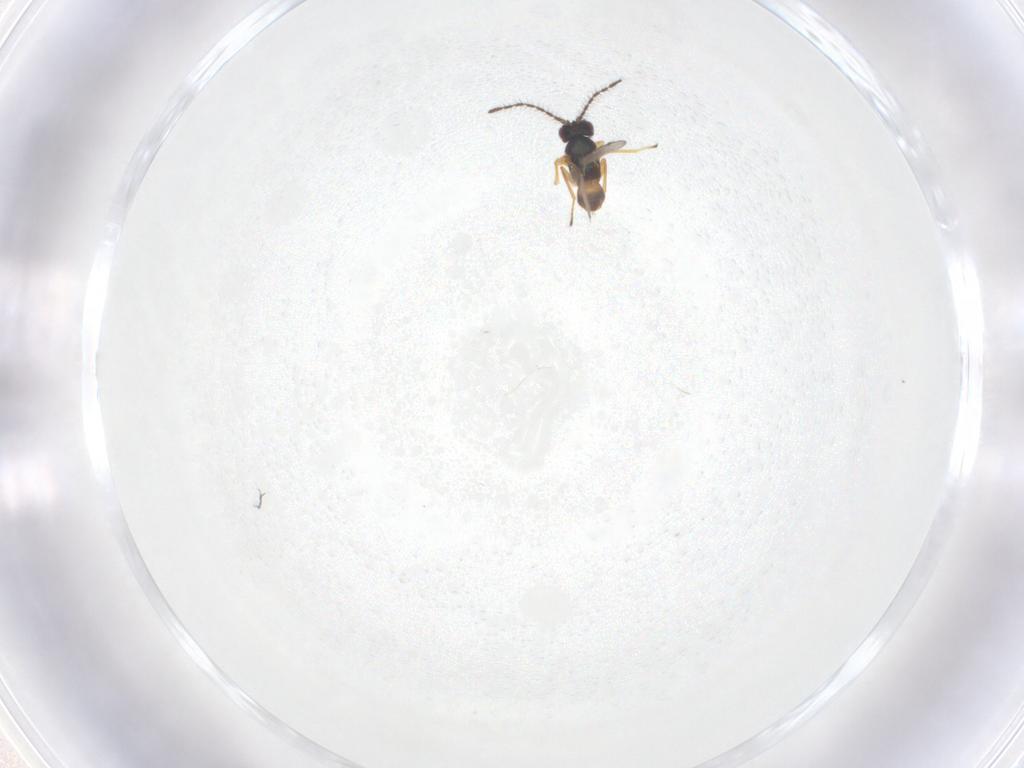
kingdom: Animalia
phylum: Arthropoda
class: Insecta
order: Hymenoptera
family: Encyrtidae
